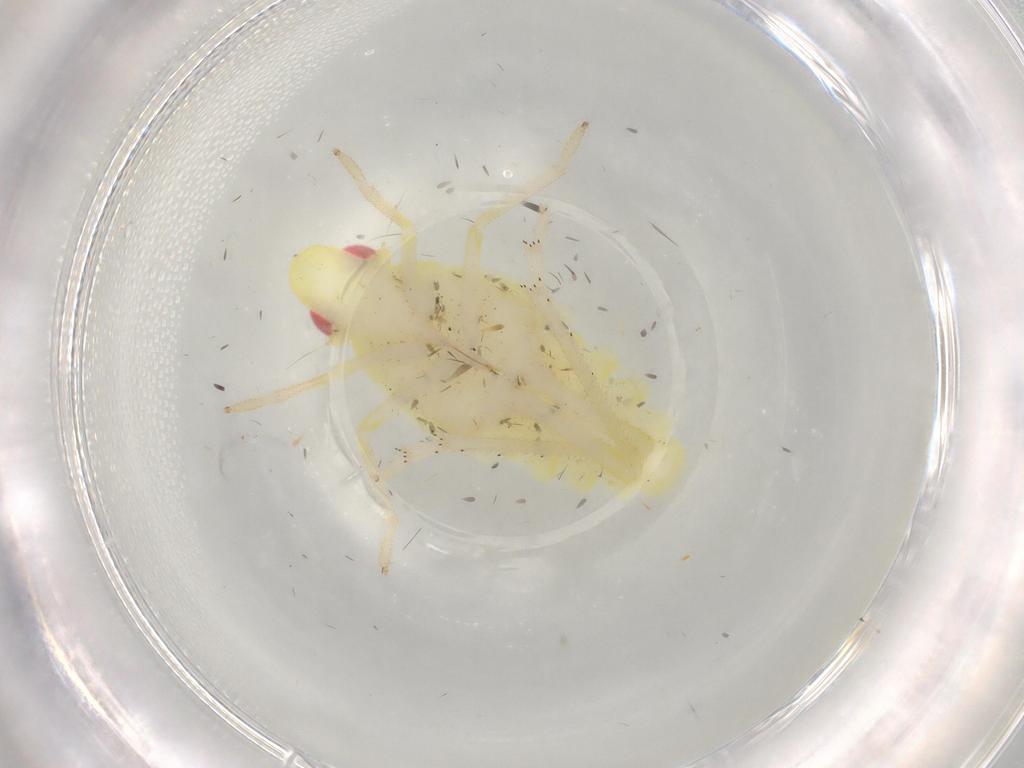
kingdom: Animalia
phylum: Arthropoda
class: Insecta
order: Hemiptera
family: Fulgoroidea_incertae_sedis
